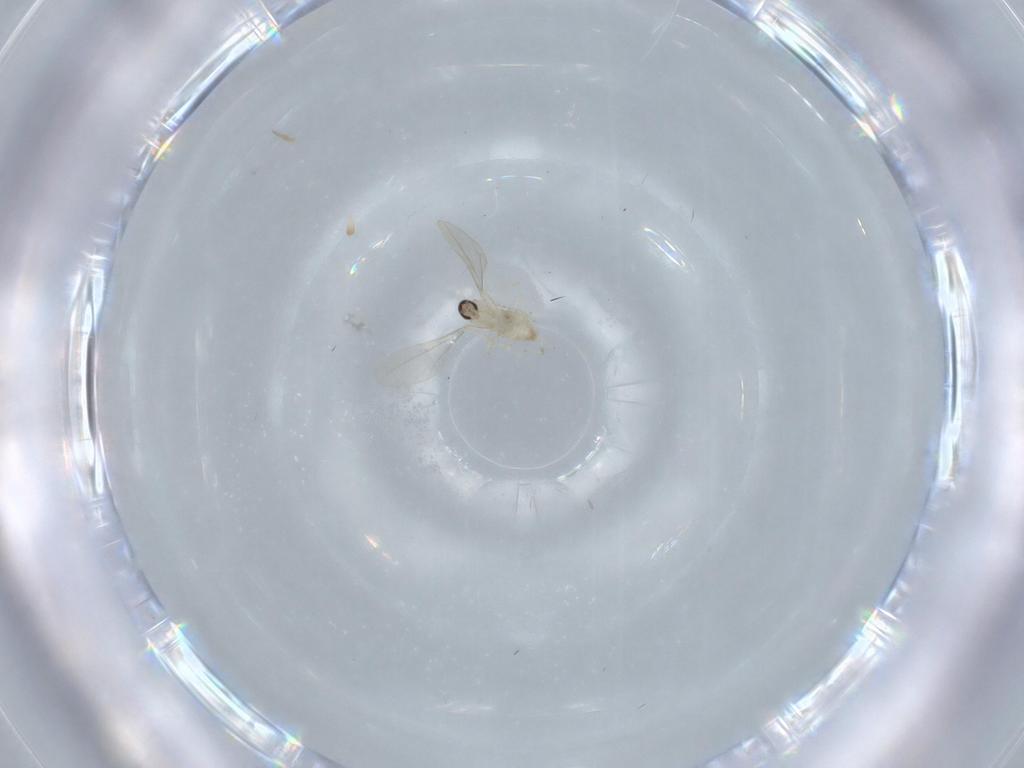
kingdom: Animalia
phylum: Arthropoda
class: Insecta
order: Diptera
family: Cecidomyiidae
